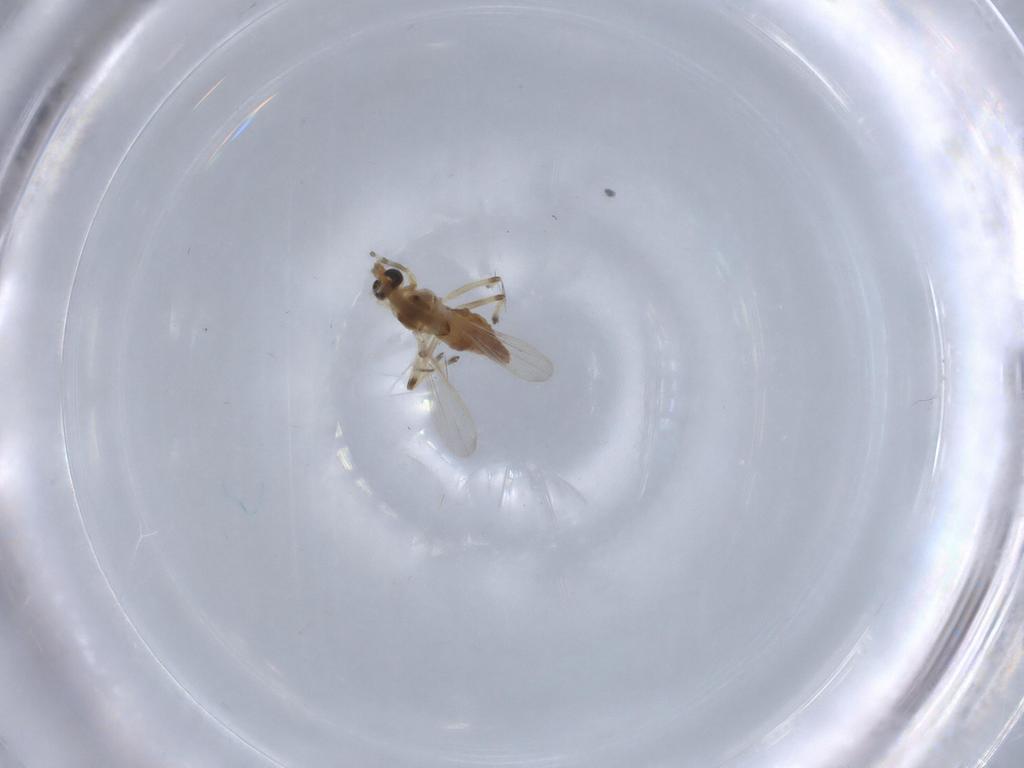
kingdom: Animalia
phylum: Arthropoda
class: Insecta
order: Diptera
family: Chironomidae
